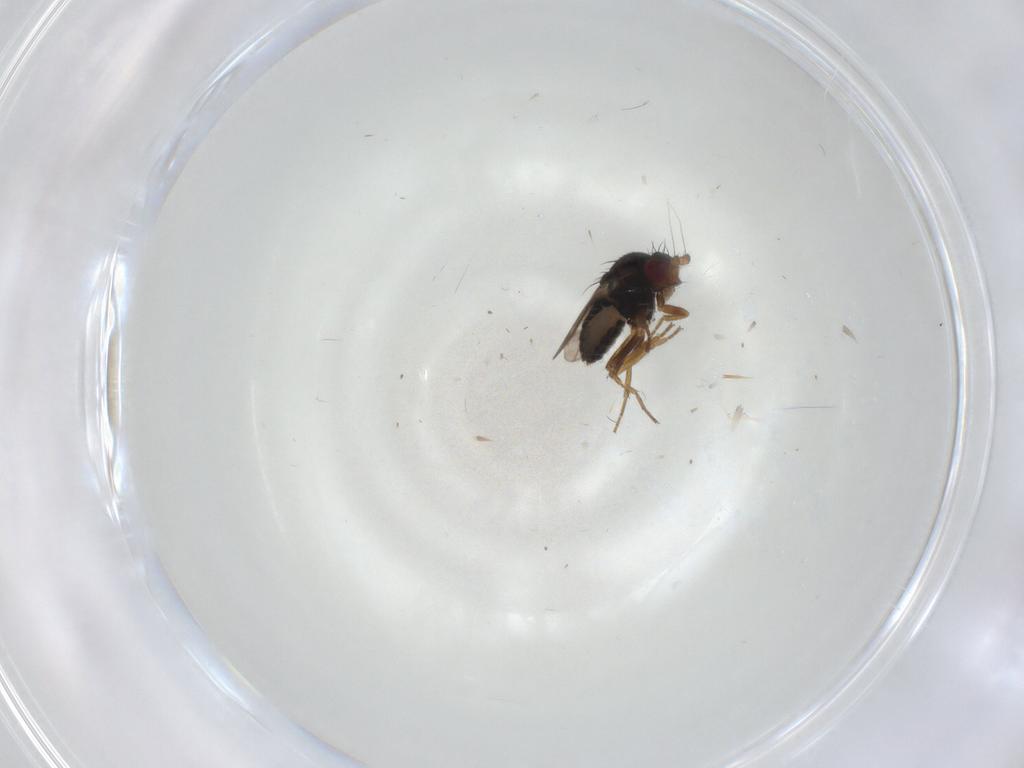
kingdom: Animalia
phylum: Arthropoda
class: Insecta
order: Diptera
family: Sphaeroceridae
